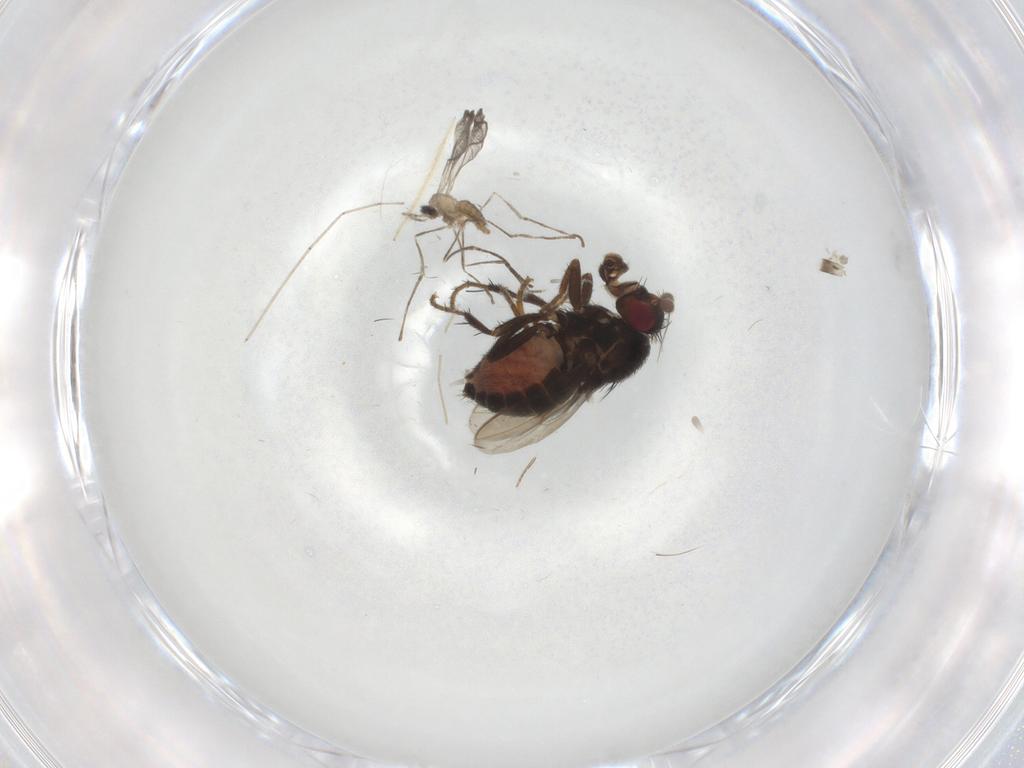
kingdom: Animalia
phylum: Arthropoda
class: Insecta
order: Diptera
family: Sphaeroceridae
